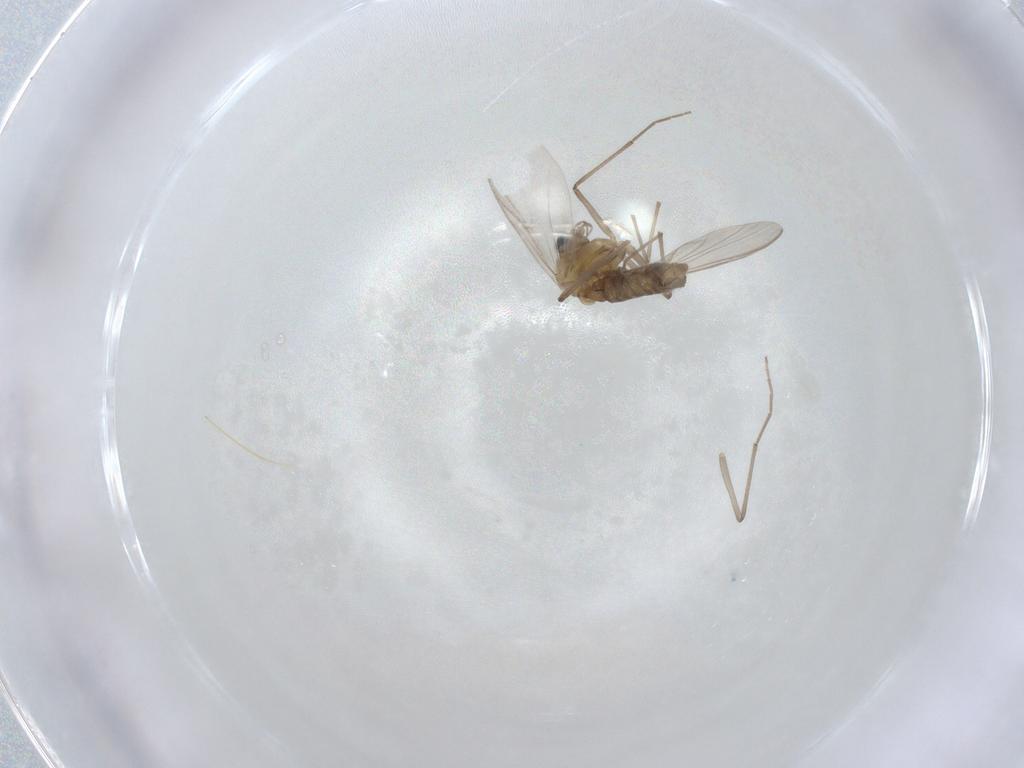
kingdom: Animalia
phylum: Arthropoda
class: Insecta
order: Diptera
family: Chironomidae
